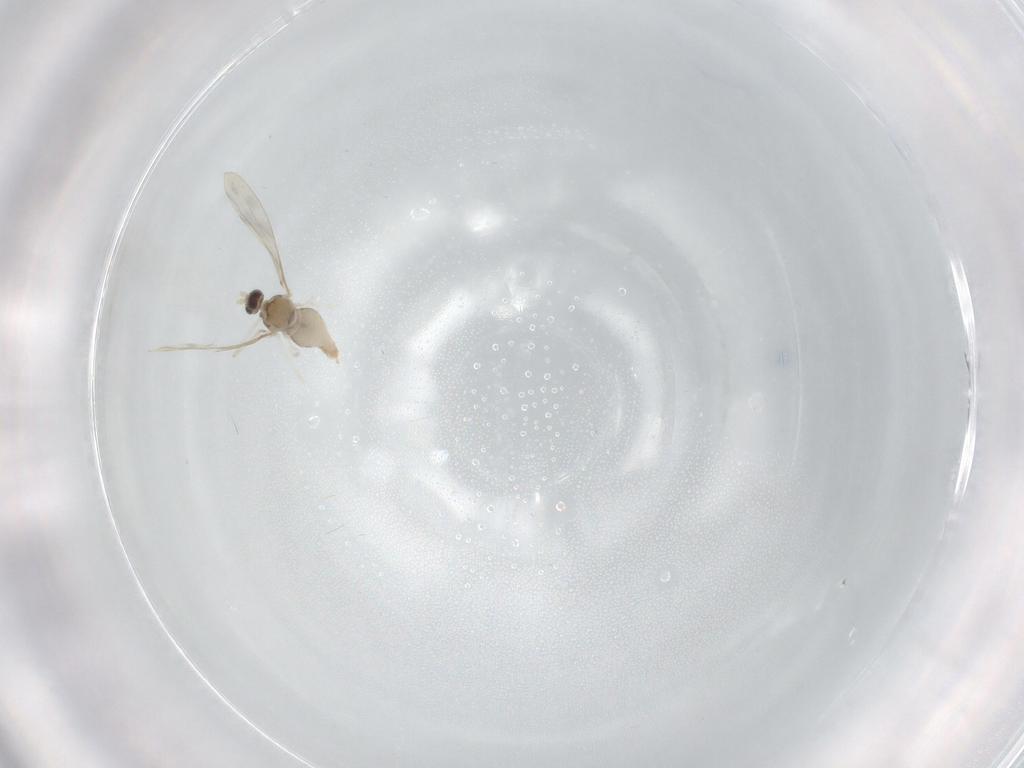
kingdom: Animalia
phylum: Arthropoda
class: Insecta
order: Diptera
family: Cecidomyiidae
